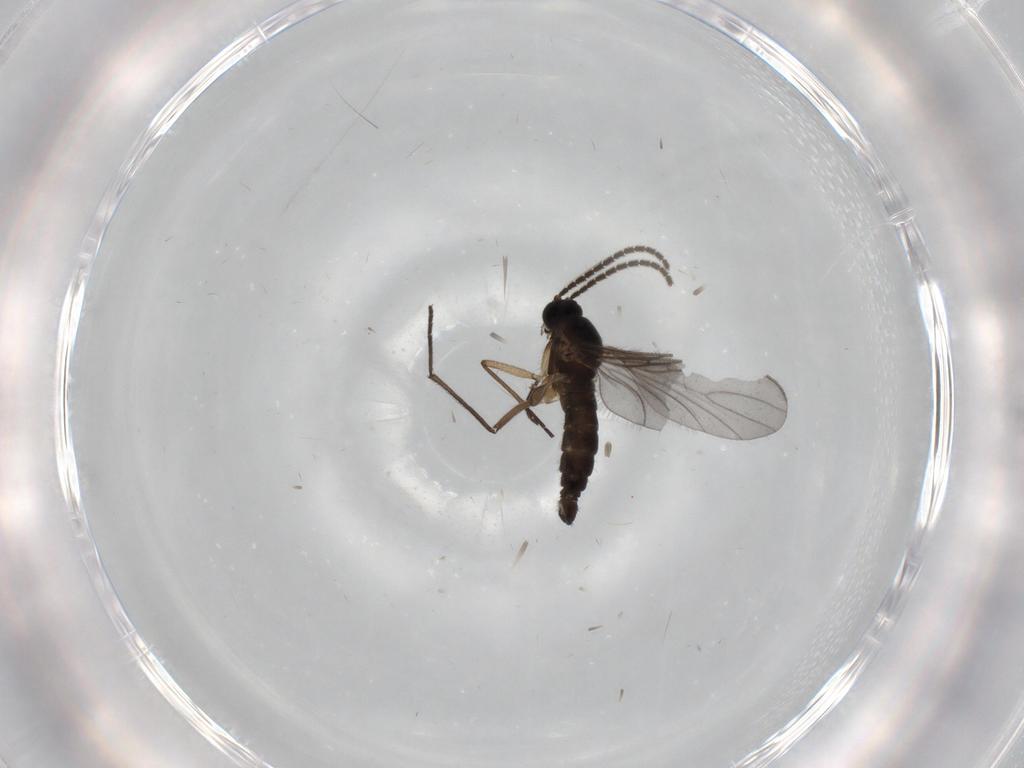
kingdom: Animalia
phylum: Arthropoda
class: Insecta
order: Diptera
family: Sciaridae
